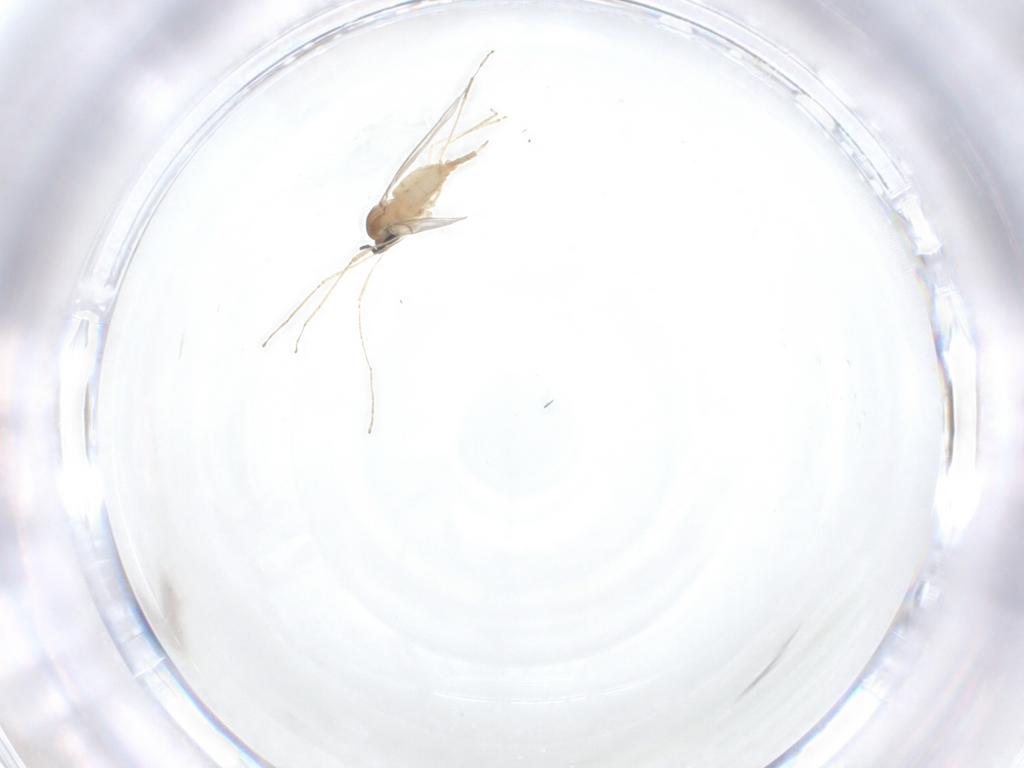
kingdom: Animalia
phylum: Arthropoda
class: Insecta
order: Diptera
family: Cecidomyiidae
